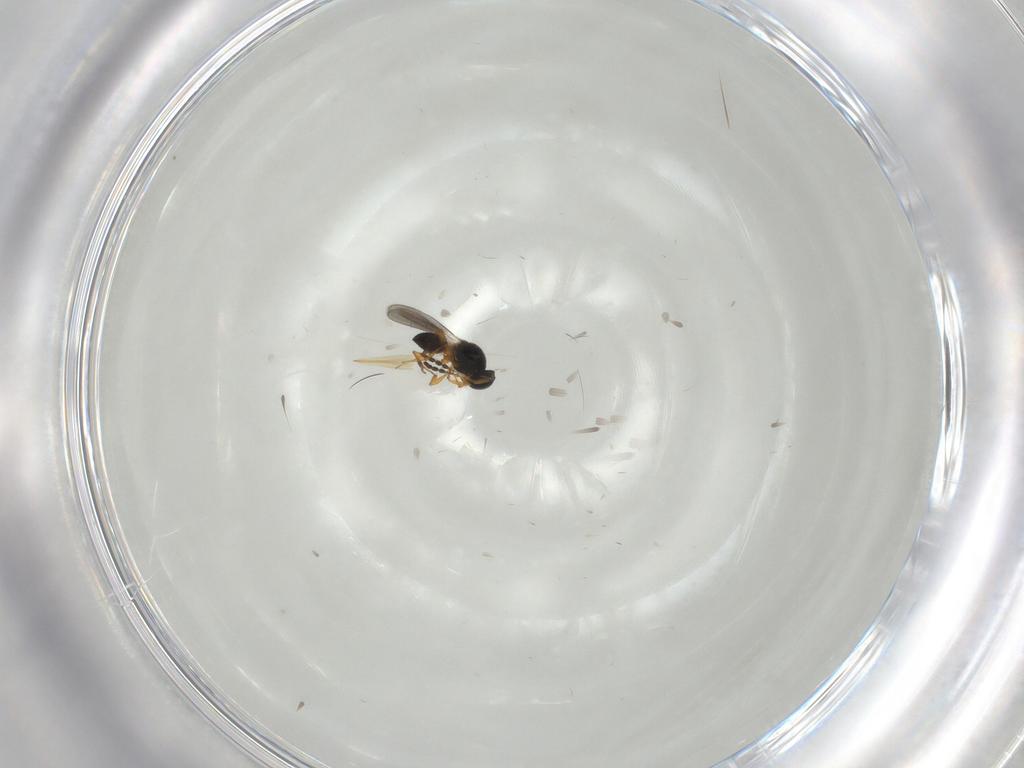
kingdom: Animalia
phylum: Arthropoda
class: Insecta
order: Hymenoptera
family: Platygastridae
